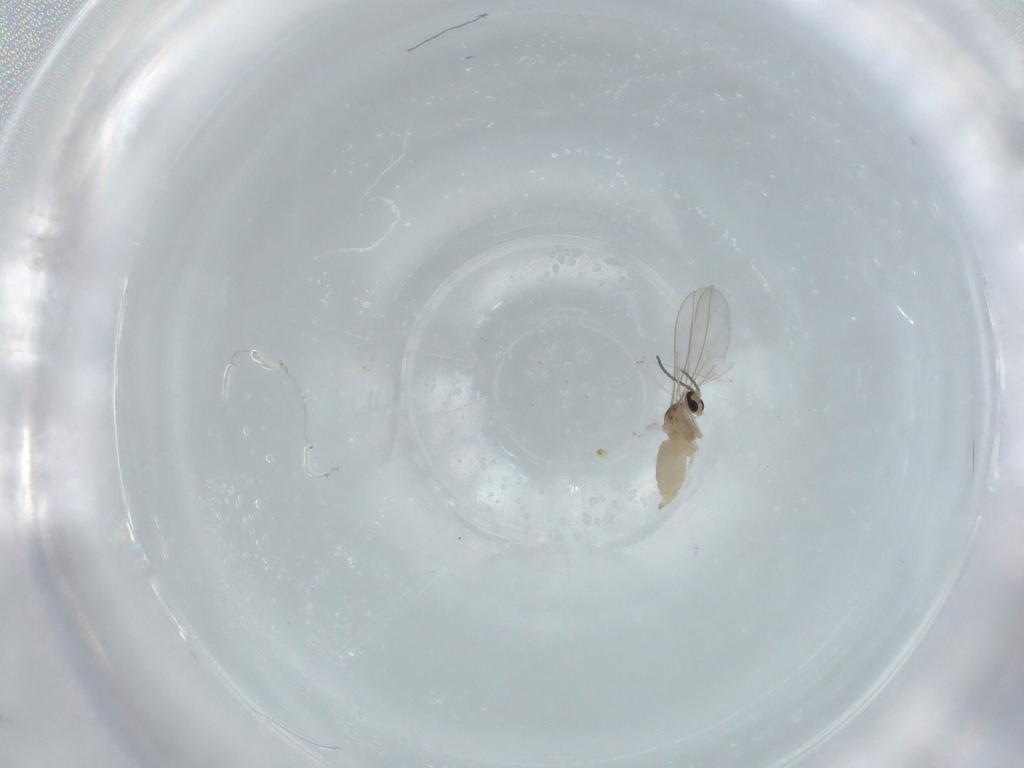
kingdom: Animalia
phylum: Arthropoda
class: Insecta
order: Diptera
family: Cecidomyiidae
